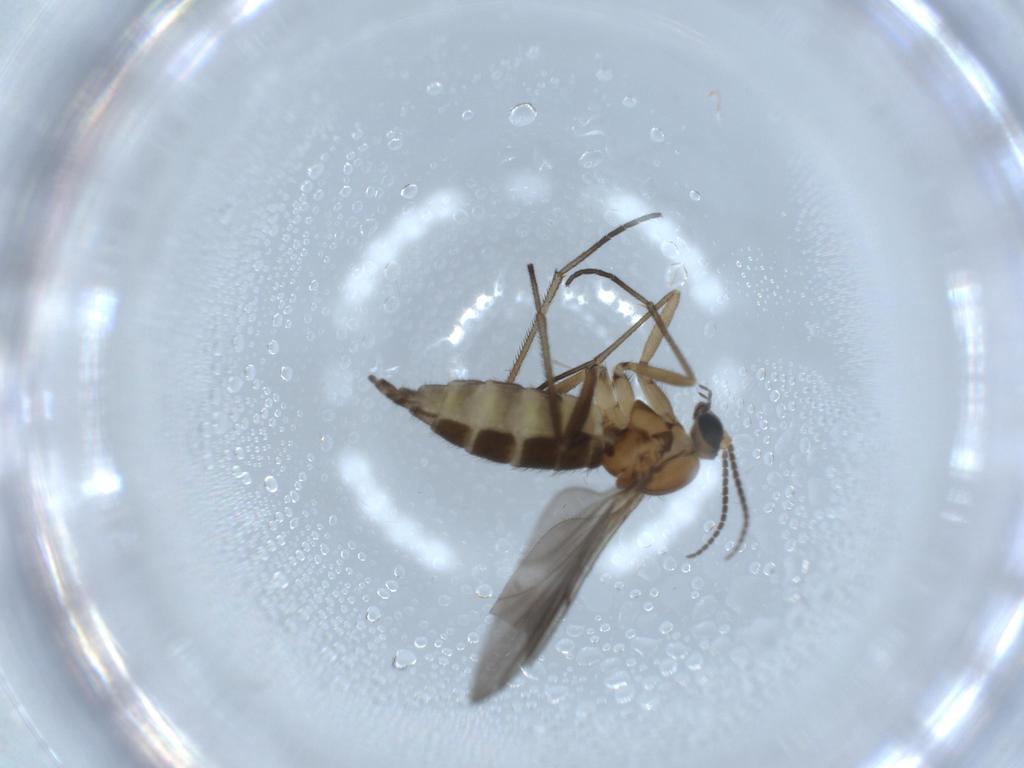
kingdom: Animalia
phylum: Arthropoda
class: Insecta
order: Diptera
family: Sciaridae
